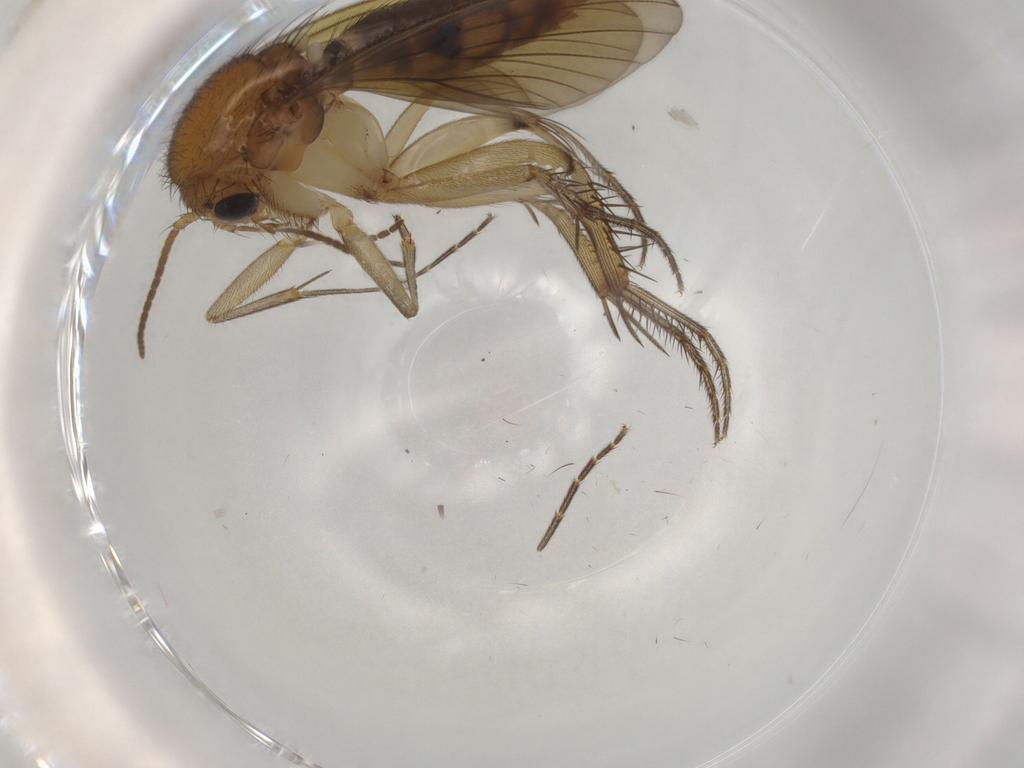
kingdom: Animalia
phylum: Arthropoda
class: Insecta
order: Diptera
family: Mycetophilidae
